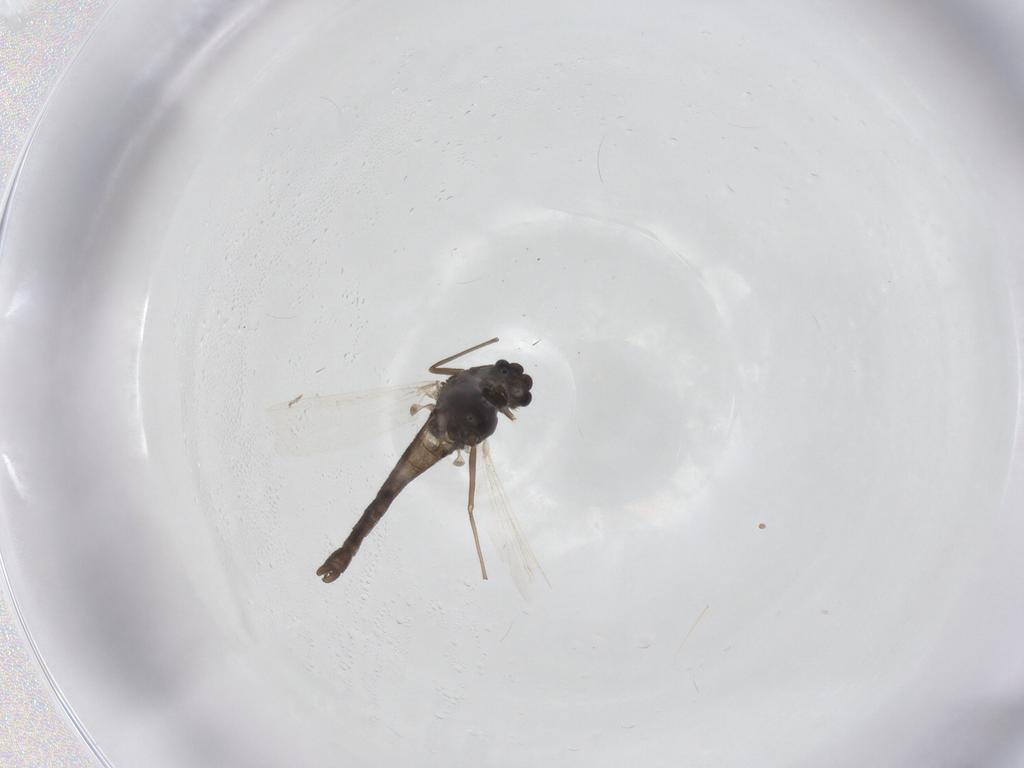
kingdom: Animalia
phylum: Arthropoda
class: Insecta
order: Diptera
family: Chironomidae
